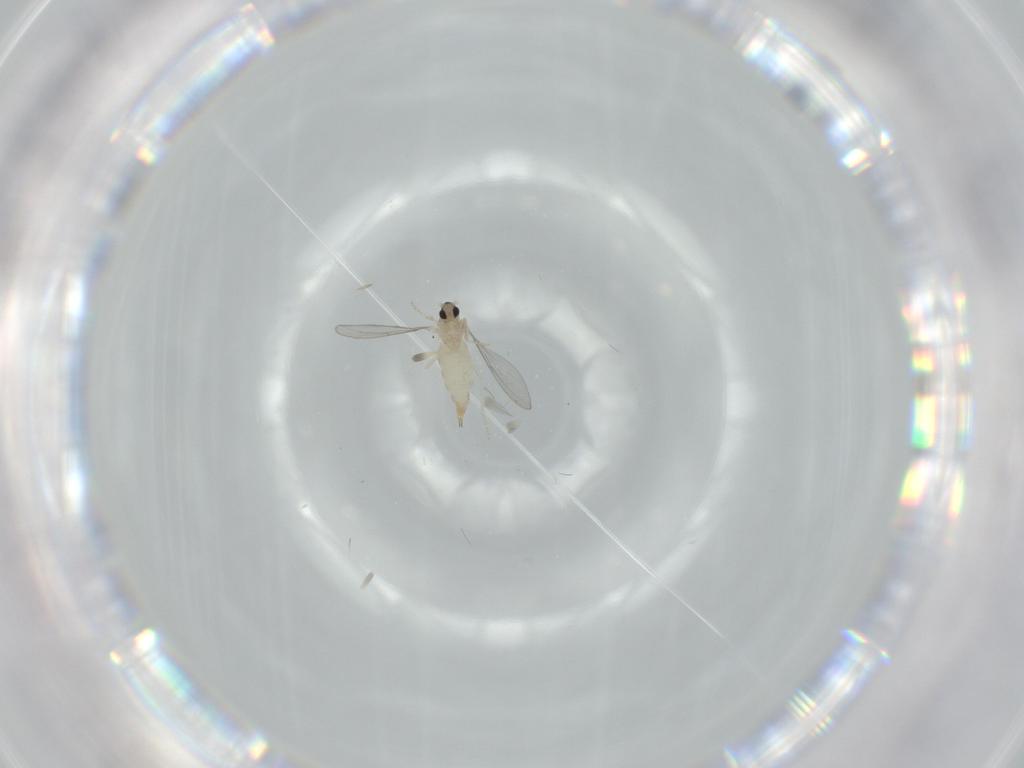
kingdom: Animalia
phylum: Arthropoda
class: Insecta
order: Diptera
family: Cecidomyiidae
